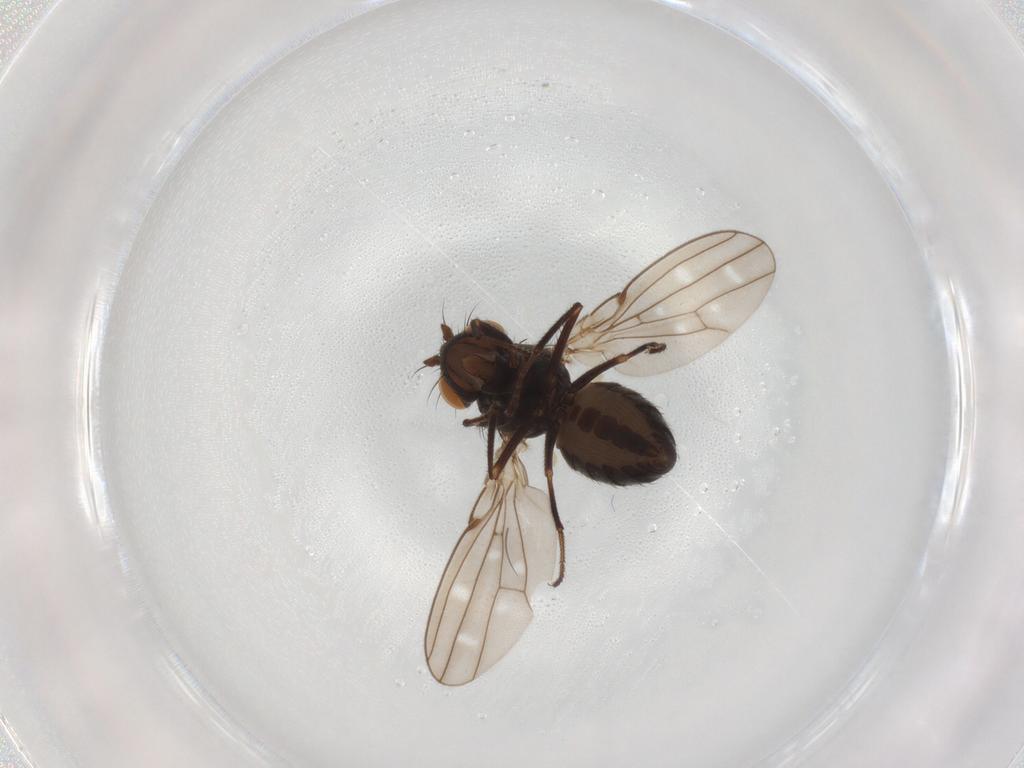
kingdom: Animalia
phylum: Arthropoda
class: Insecta
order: Diptera
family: Ephydridae
